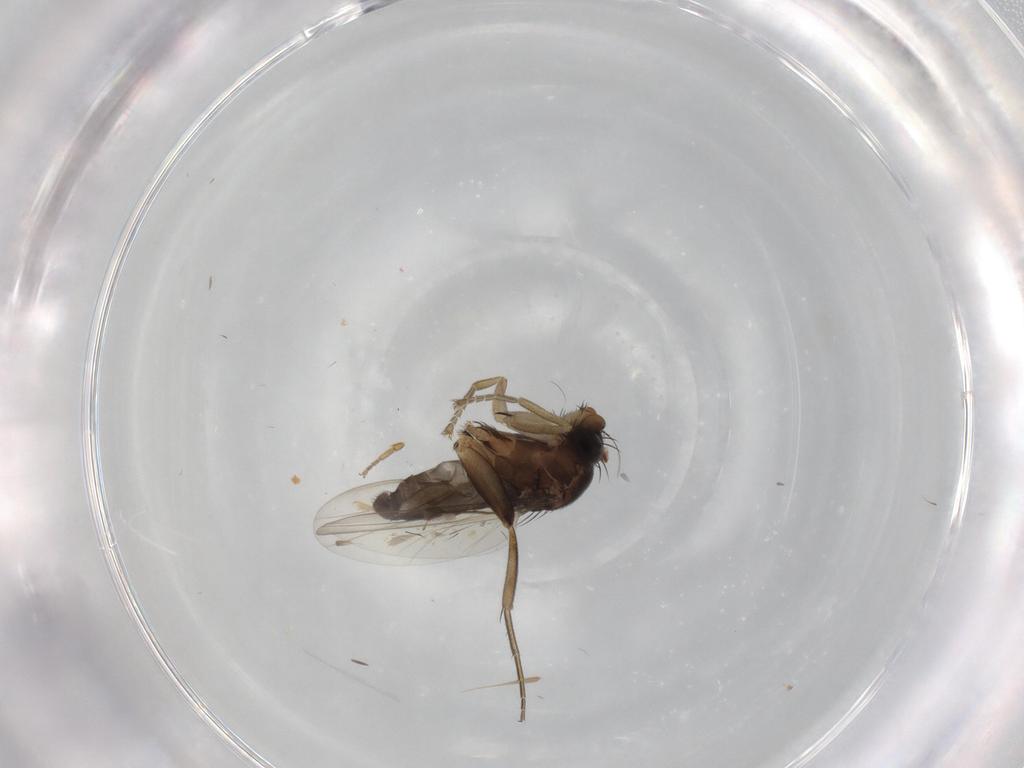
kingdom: Animalia
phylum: Arthropoda
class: Insecta
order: Diptera
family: Phoridae
